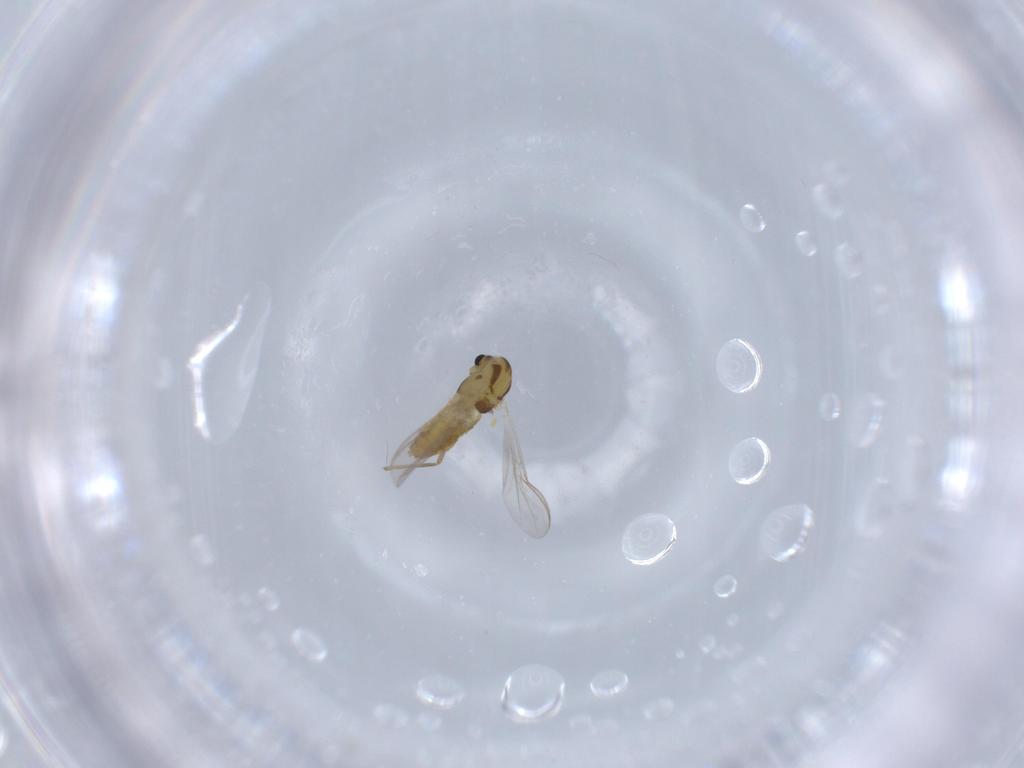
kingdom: Animalia
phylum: Arthropoda
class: Insecta
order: Diptera
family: Chironomidae
